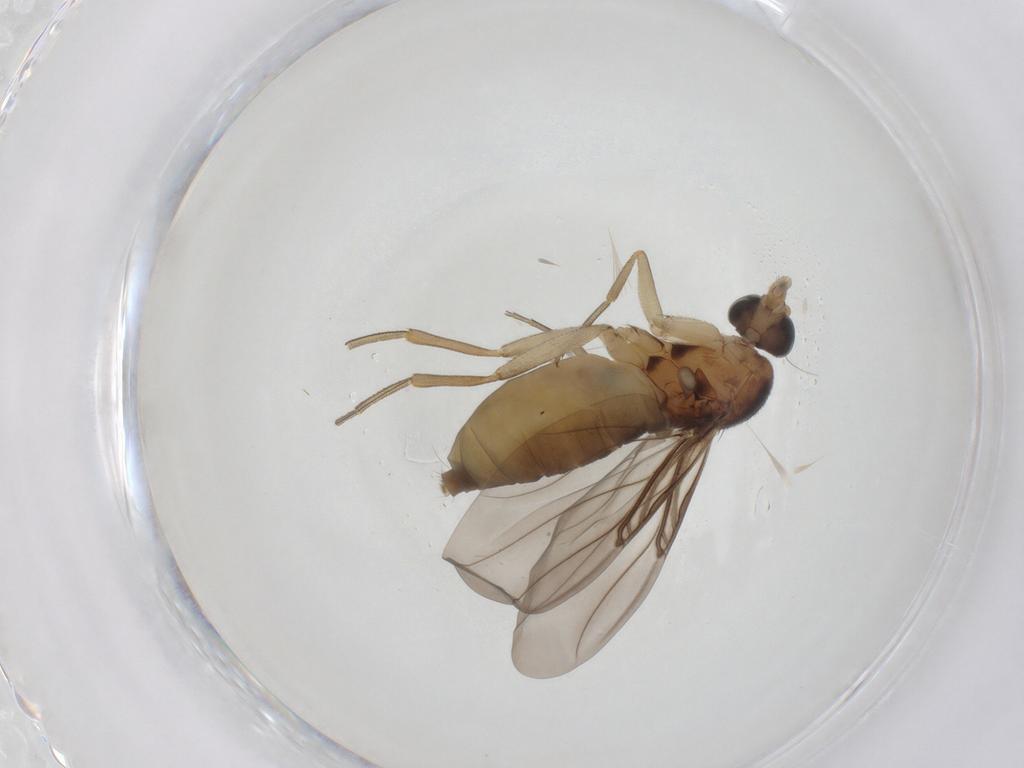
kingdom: Animalia
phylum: Arthropoda
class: Insecta
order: Diptera
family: Phoridae
